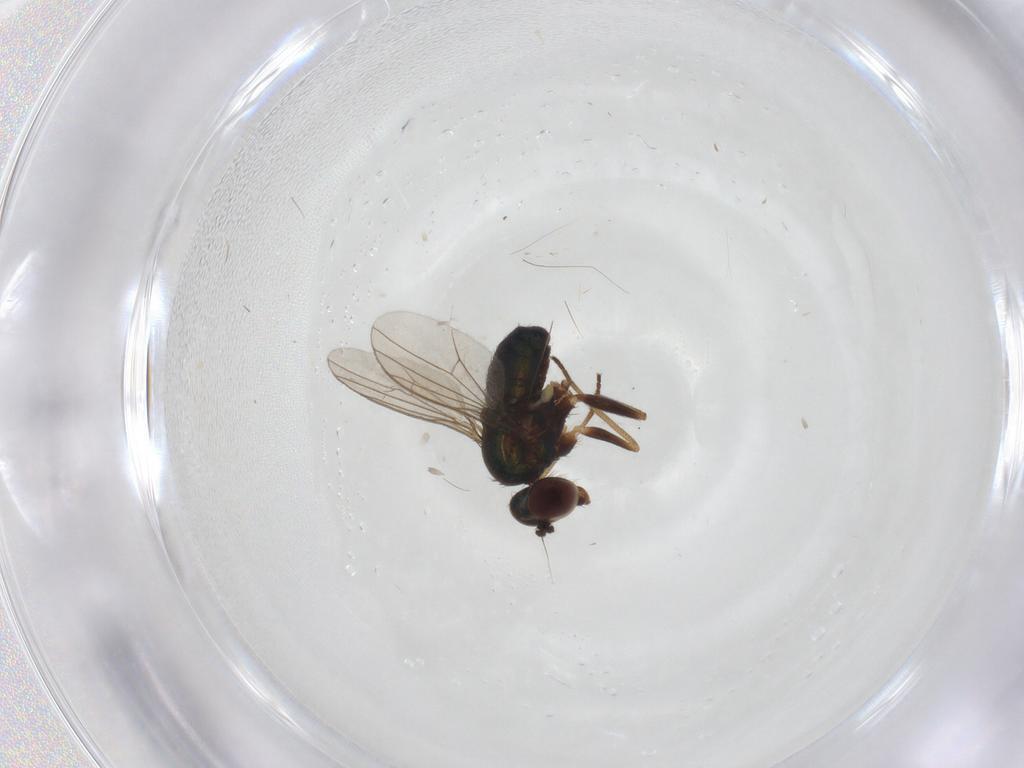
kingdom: Animalia
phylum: Arthropoda
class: Insecta
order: Diptera
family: Dolichopodidae
